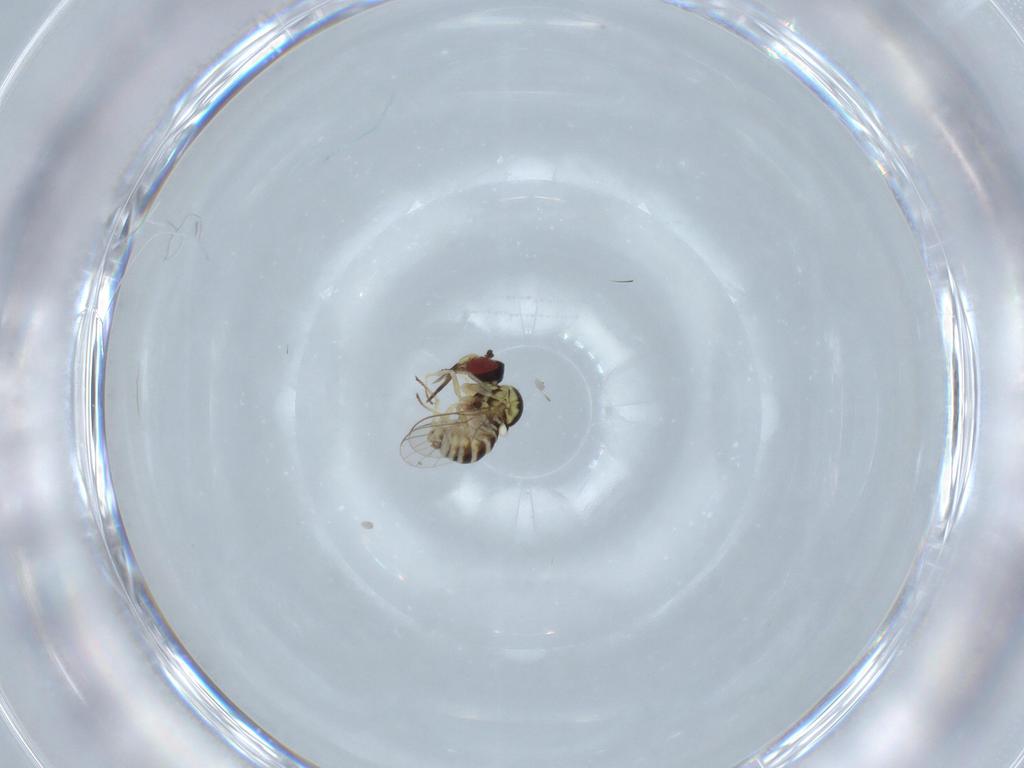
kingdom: Animalia
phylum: Arthropoda
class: Insecta
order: Diptera
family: Bombyliidae
